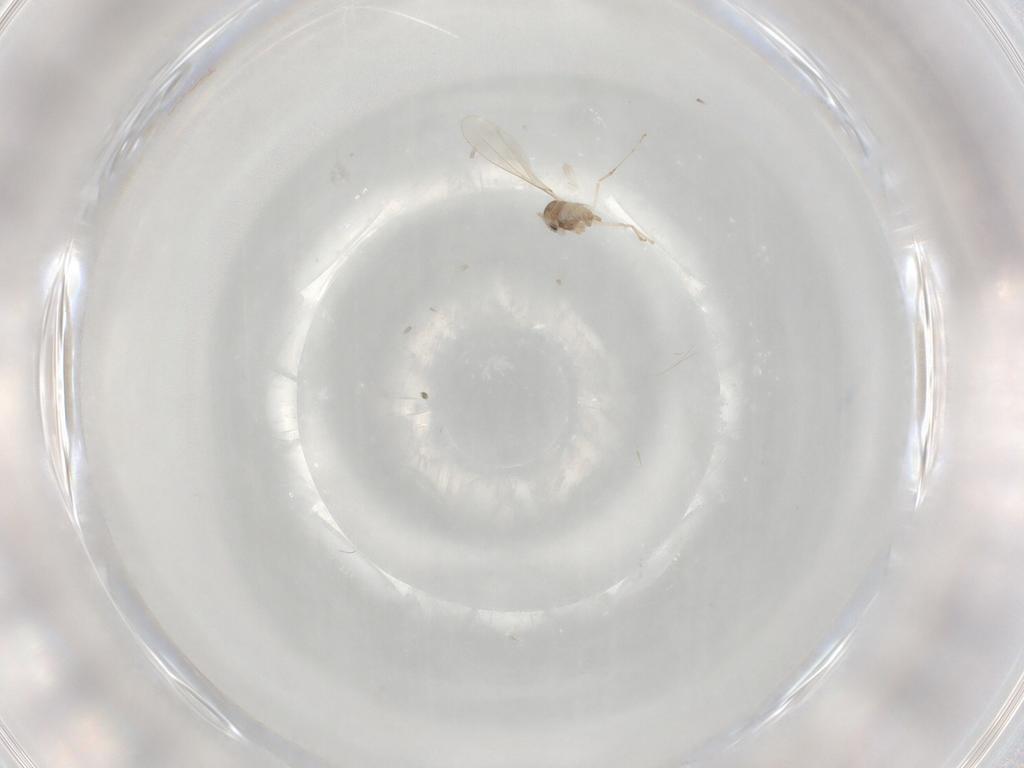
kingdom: Animalia
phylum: Arthropoda
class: Insecta
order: Diptera
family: Cecidomyiidae
